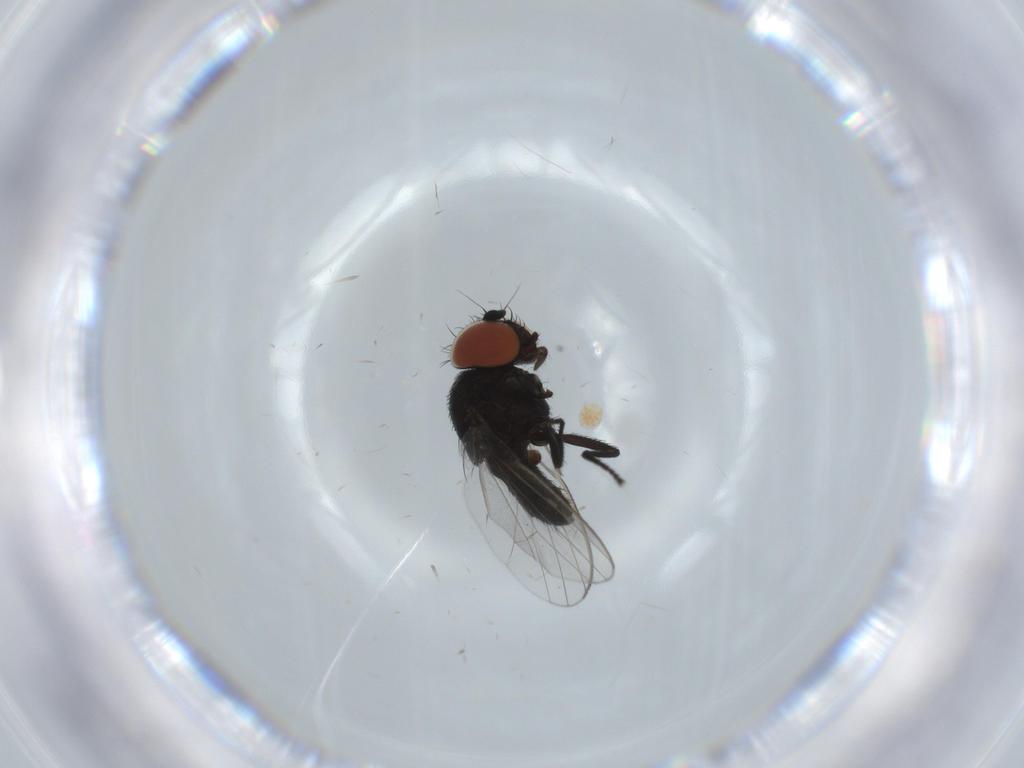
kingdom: Animalia
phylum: Arthropoda
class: Insecta
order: Diptera
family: Milichiidae
